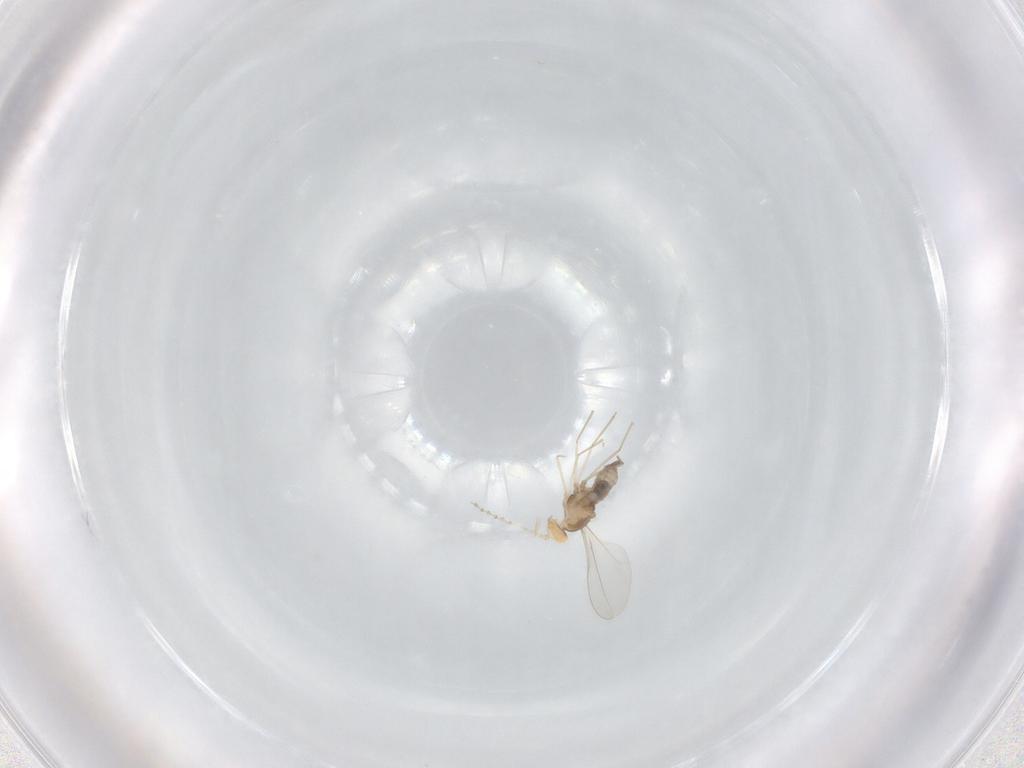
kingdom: Animalia
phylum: Arthropoda
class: Insecta
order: Diptera
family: Cecidomyiidae
